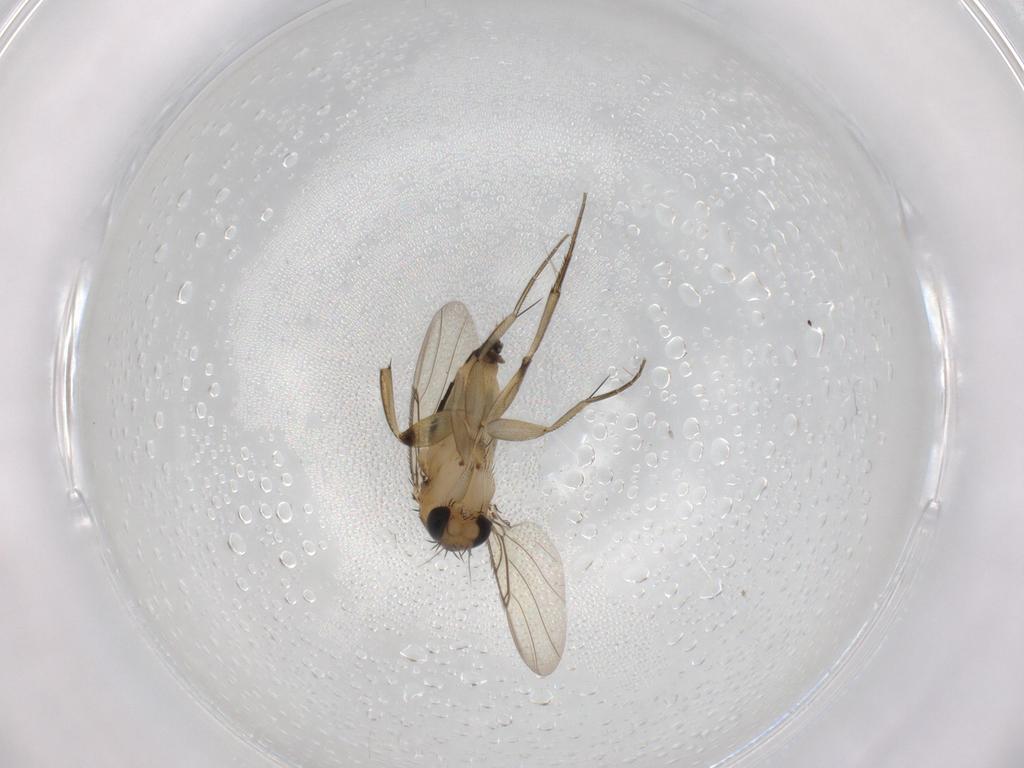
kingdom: Animalia
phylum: Arthropoda
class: Insecta
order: Diptera
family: Phoridae
